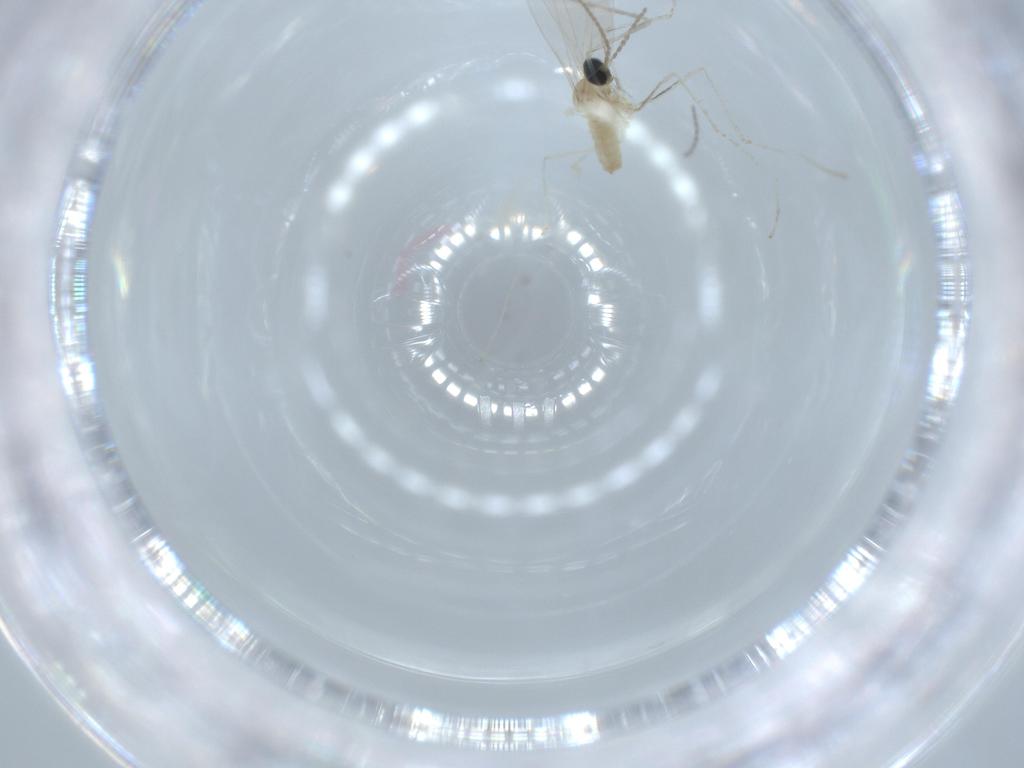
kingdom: Animalia
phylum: Arthropoda
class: Insecta
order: Diptera
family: Cecidomyiidae
